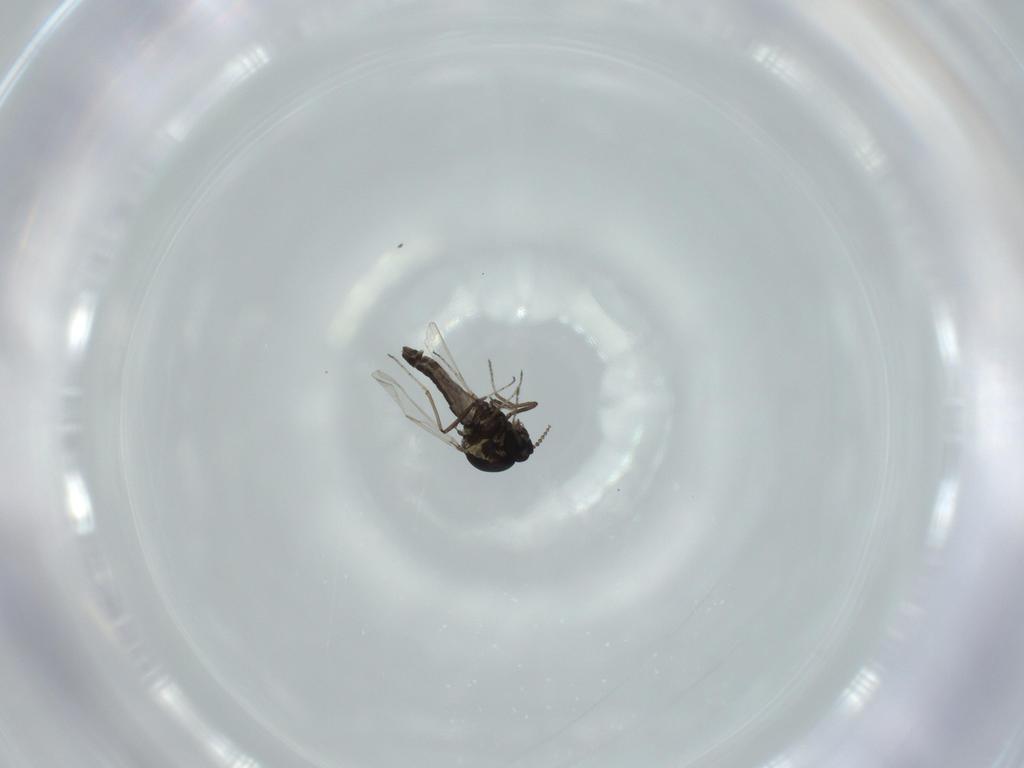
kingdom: Animalia
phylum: Arthropoda
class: Insecta
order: Diptera
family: Chironomidae
